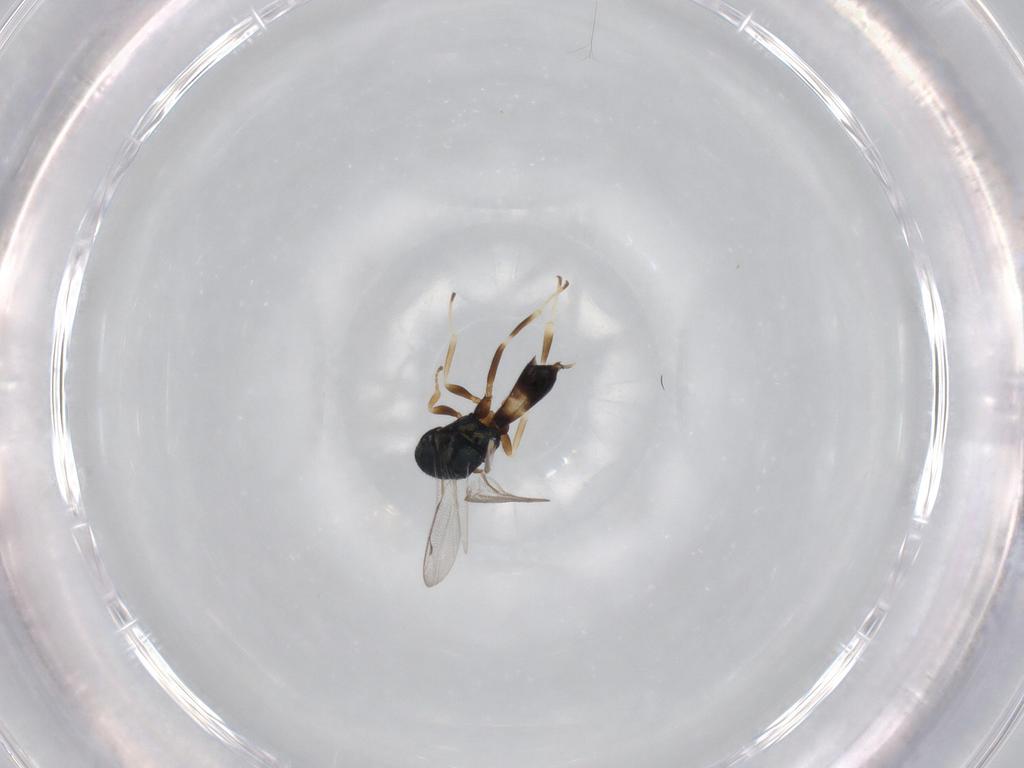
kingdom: Animalia
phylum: Arthropoda
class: Insecta
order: Hymenoptera
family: Pteromalidae
